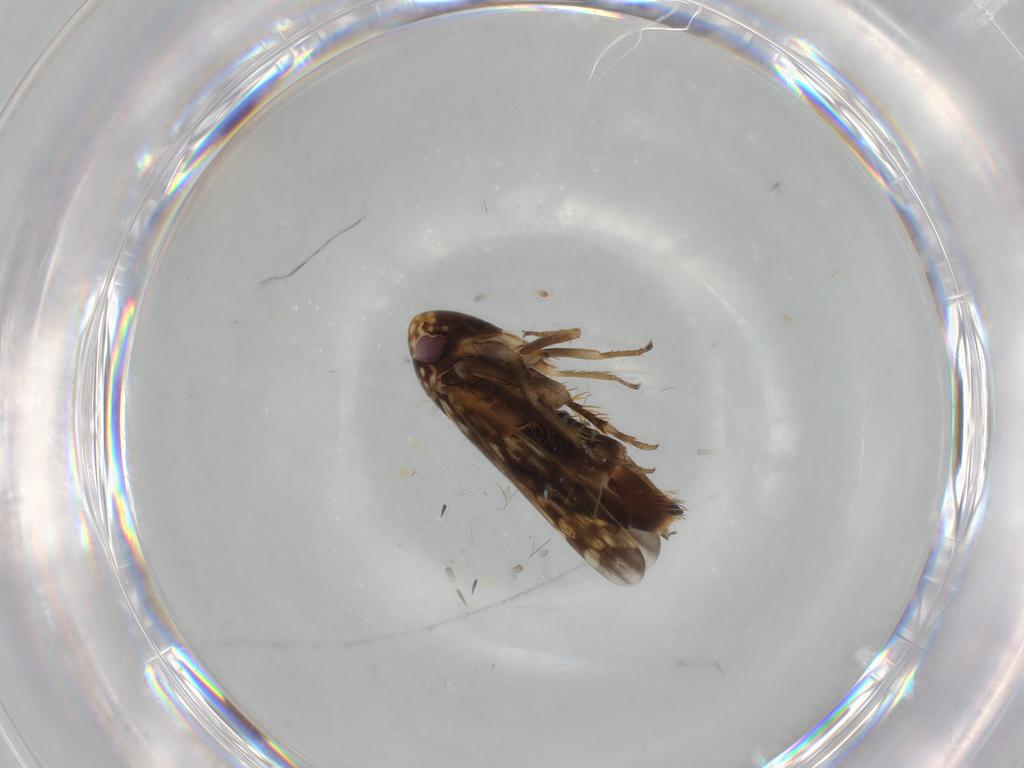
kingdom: Animalia
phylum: Arthropoda
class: Insecta
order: Hemiptera
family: Cicadellidae
